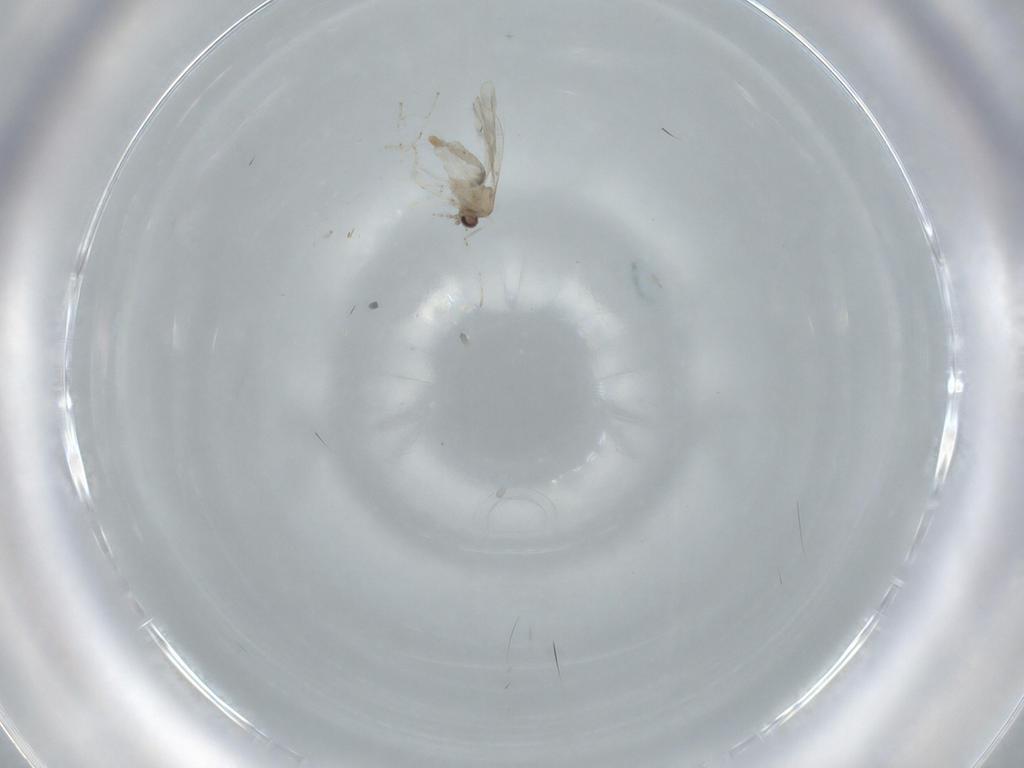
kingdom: Animalia
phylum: Arthropoda
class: Insecta
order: Diptera
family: Cecidomyiidae
